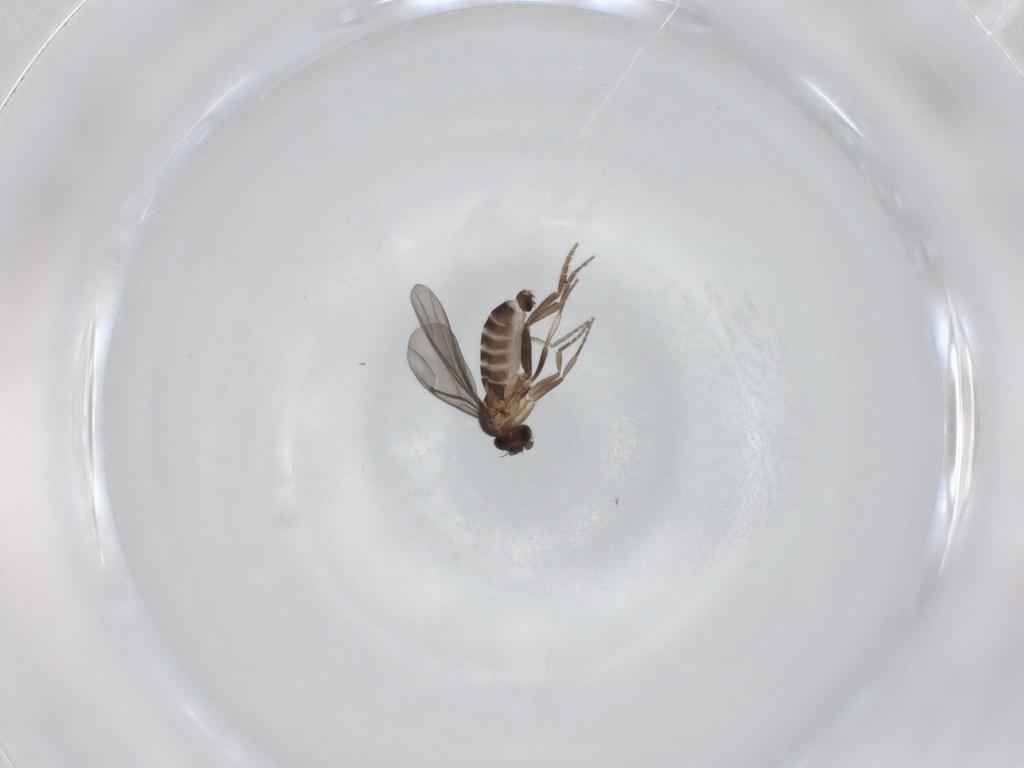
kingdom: Animalia
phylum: Arthropoda
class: Insecta
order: Diptera
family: Phoridae
